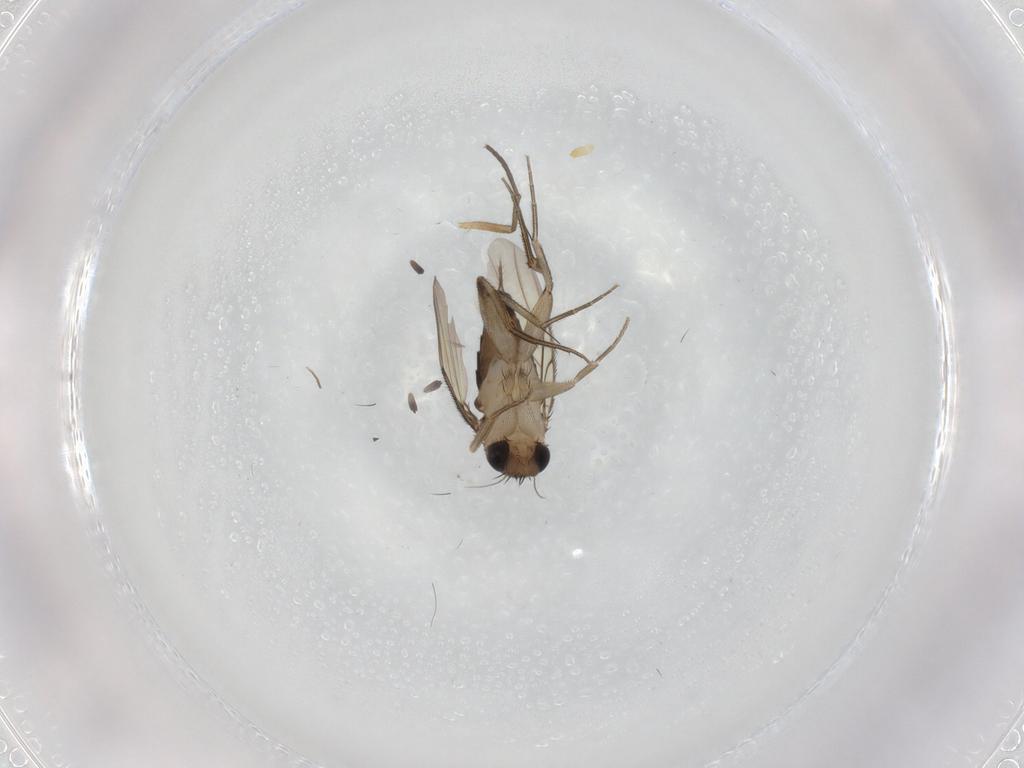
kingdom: Animalia
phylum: Arthropoda
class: Insecta
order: Diptera
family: Phoridae
